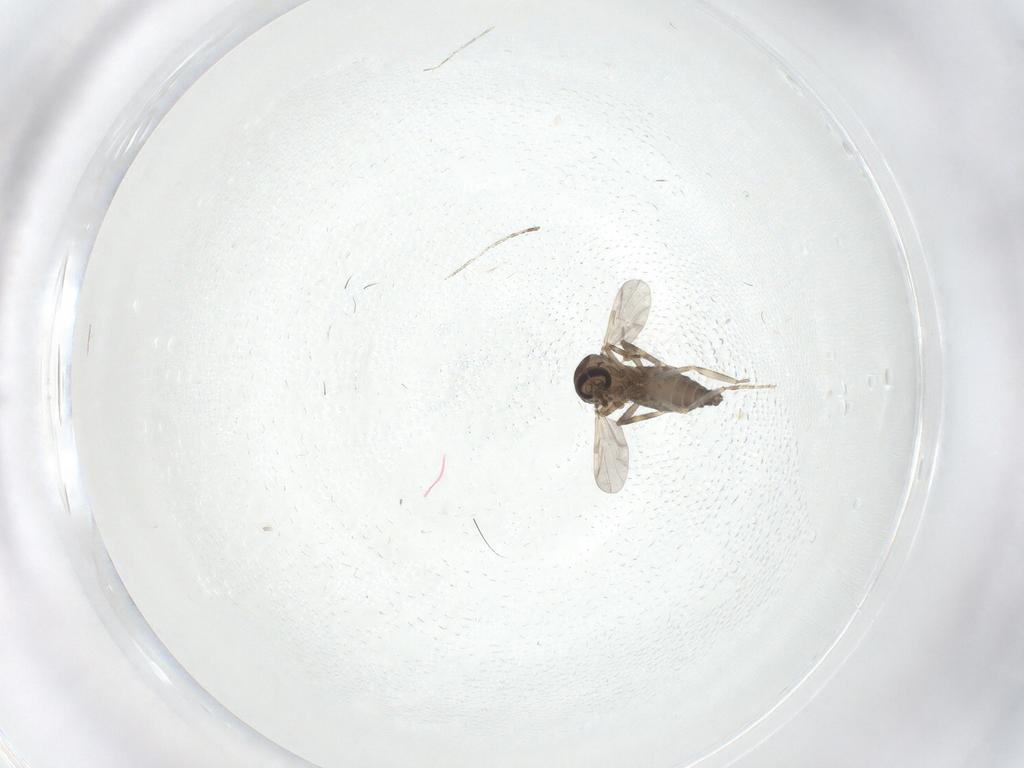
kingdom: Animalia
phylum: Arthropoda
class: Insecta
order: Diptera
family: Ceratopogonidae
